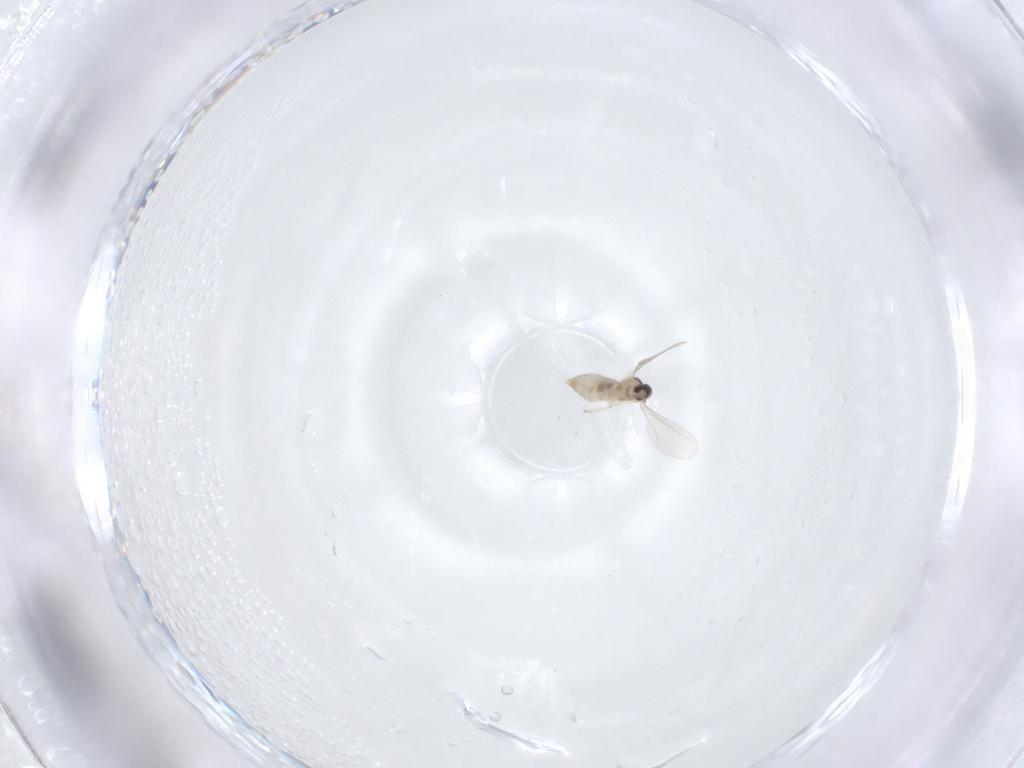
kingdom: Animalia
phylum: Arthropoda
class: Insecta
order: Diptera
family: Cecidomyiidae
